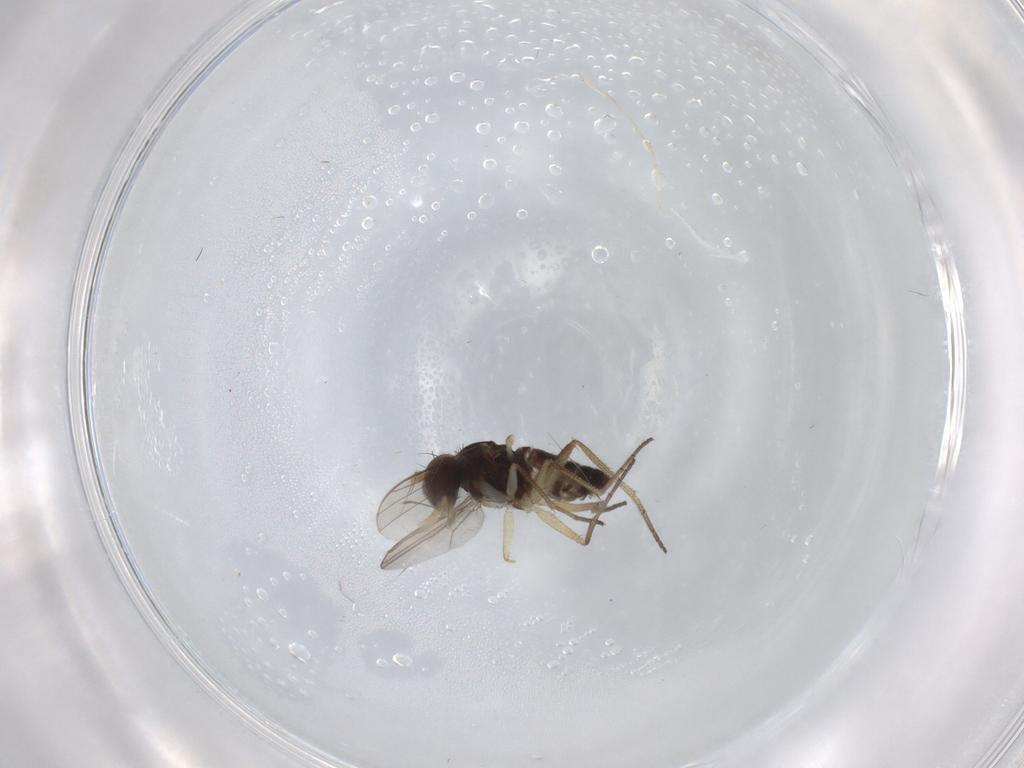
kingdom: Animalia
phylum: Arthropoda
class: Insecta
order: Diptera
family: Dolichopodidae
